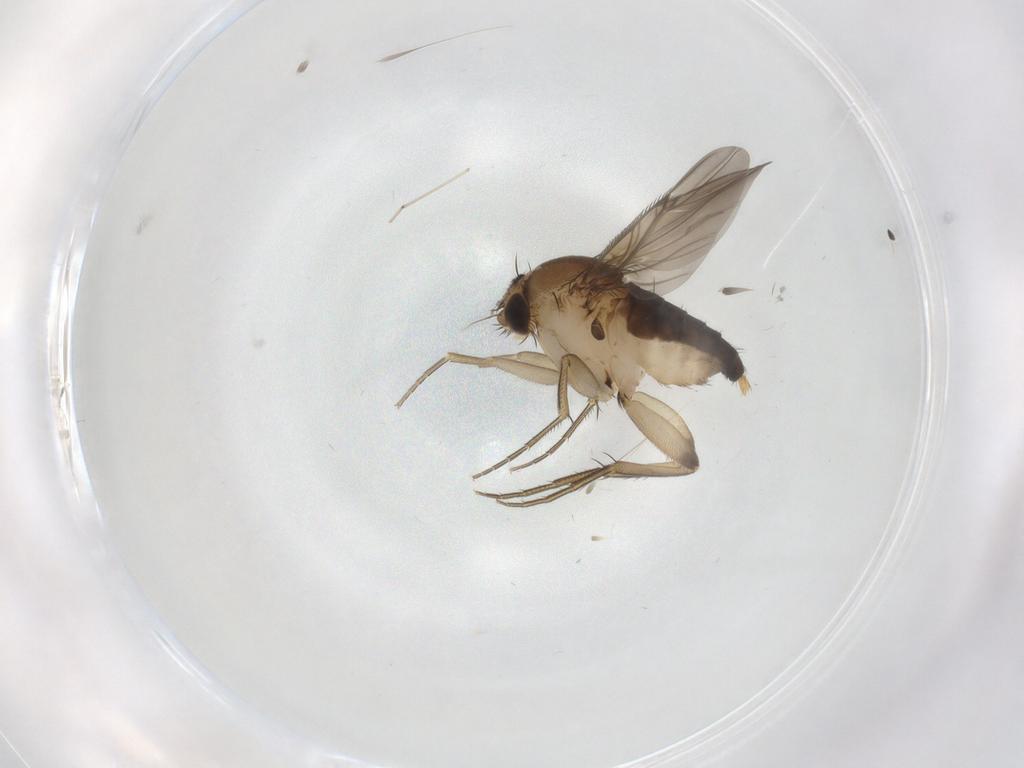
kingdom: Animalia
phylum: Arthropoda
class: Insecta
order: Diptera
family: Phoridae
